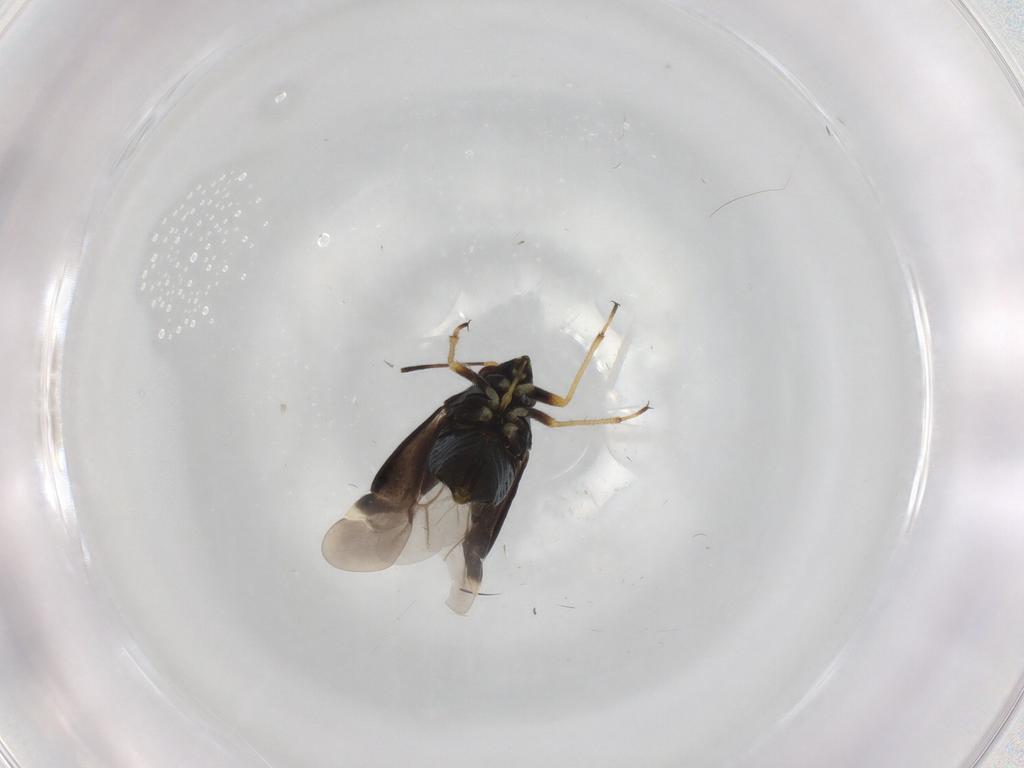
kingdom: Animalia
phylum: Arthropoda
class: Insecta
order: Hemiptera
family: Miridae
